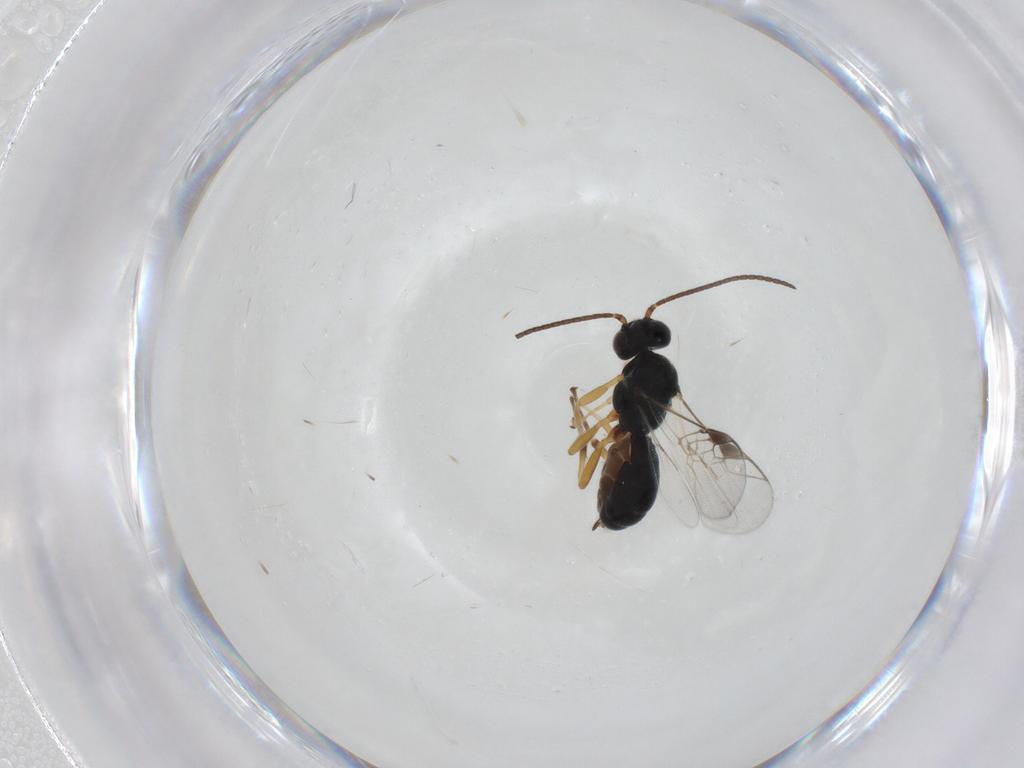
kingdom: Animalia
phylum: Arthropoda
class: Insecta
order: Hymenoptera
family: Braconidae
